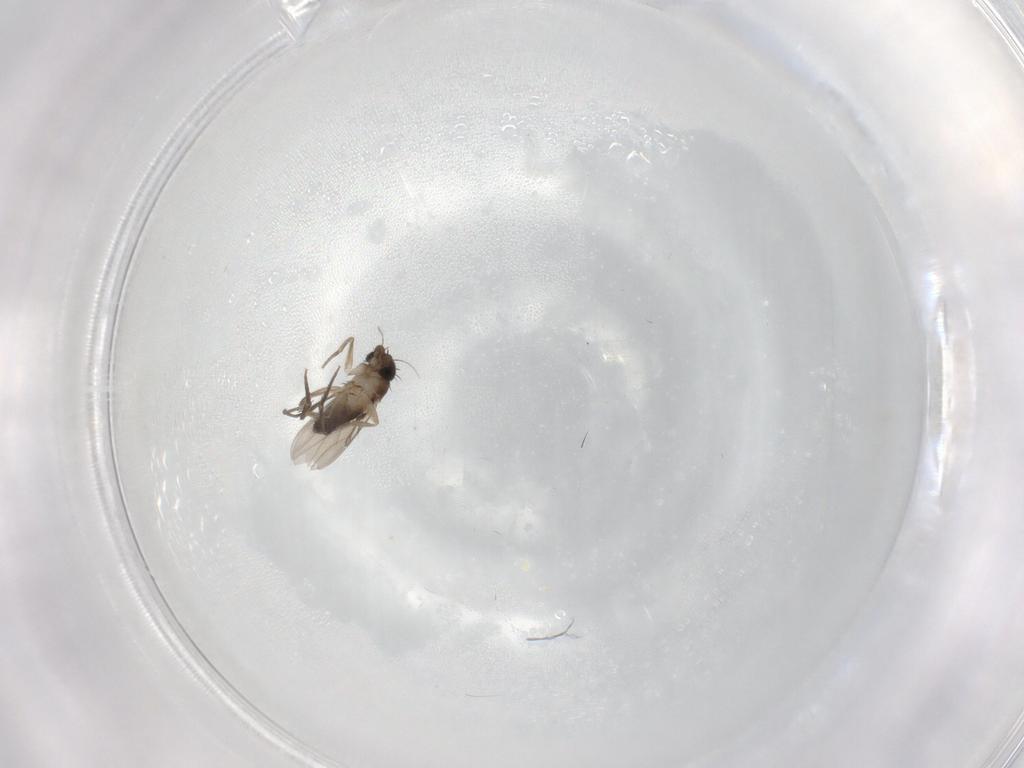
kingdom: Animalia
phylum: Arthropoda
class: Insecta
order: Diptera
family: Phoridae
